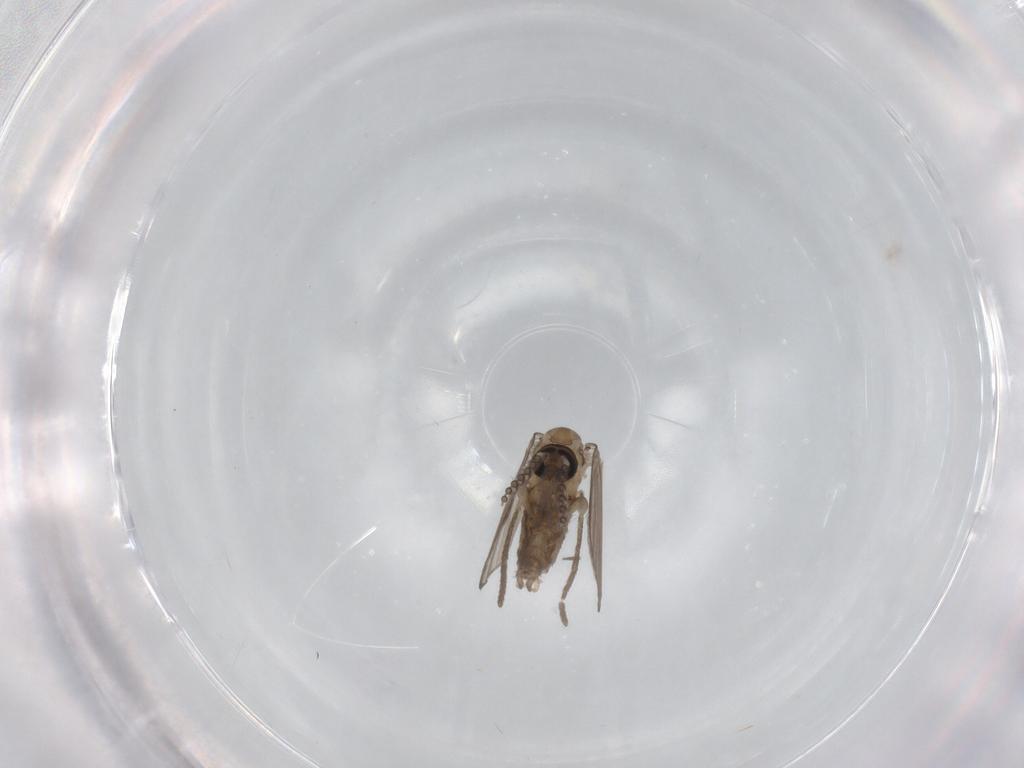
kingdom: Animalia
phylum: Arthropoda
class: Insecta
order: Diptera
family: Psychodidae
